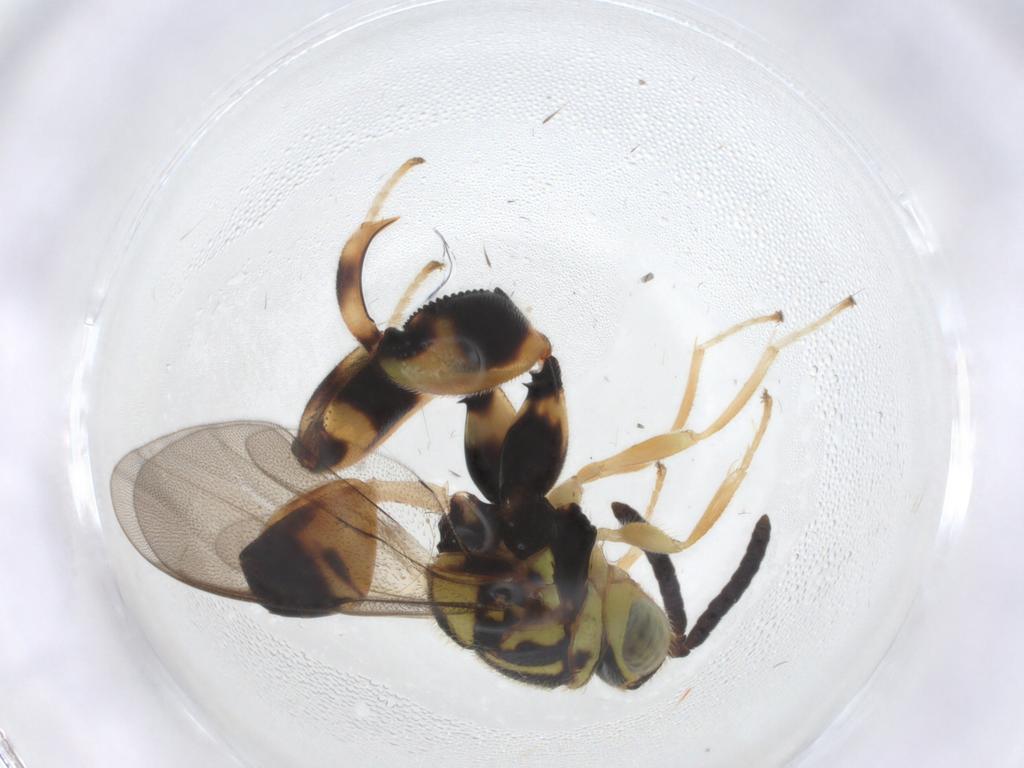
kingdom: Animalia
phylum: Arthropoda
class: Insecta
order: Hymenoptera
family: Chalcididae
